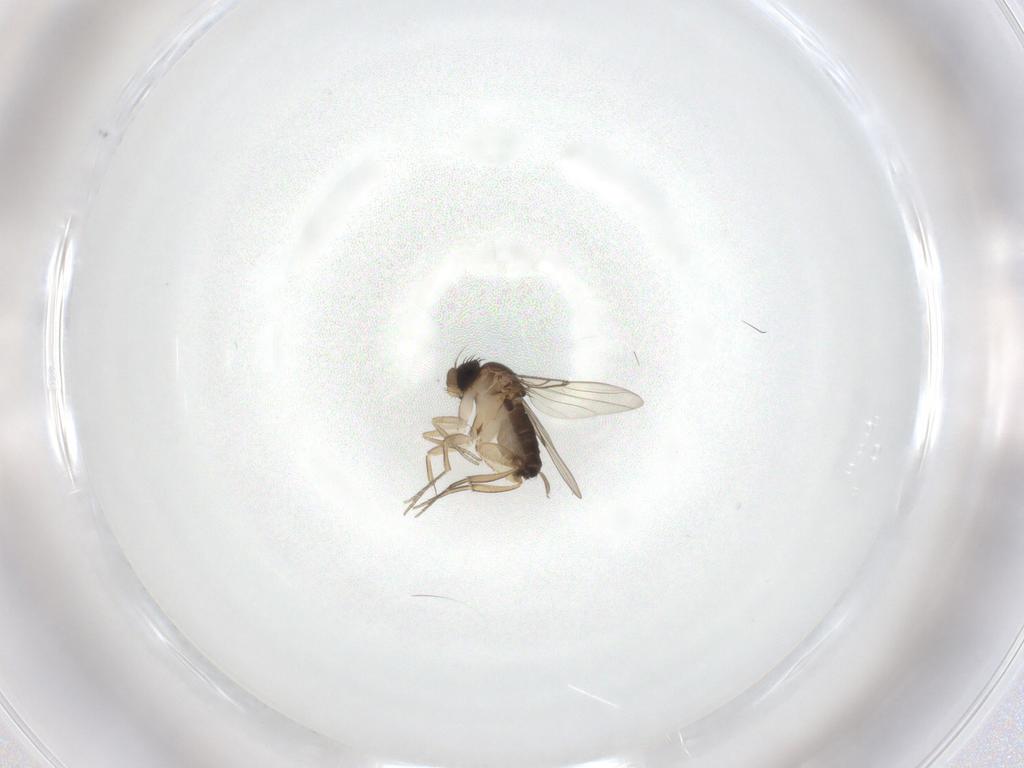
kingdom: Animalia
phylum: Arthropoda
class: Insecta
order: Diptera
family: Phoridae
